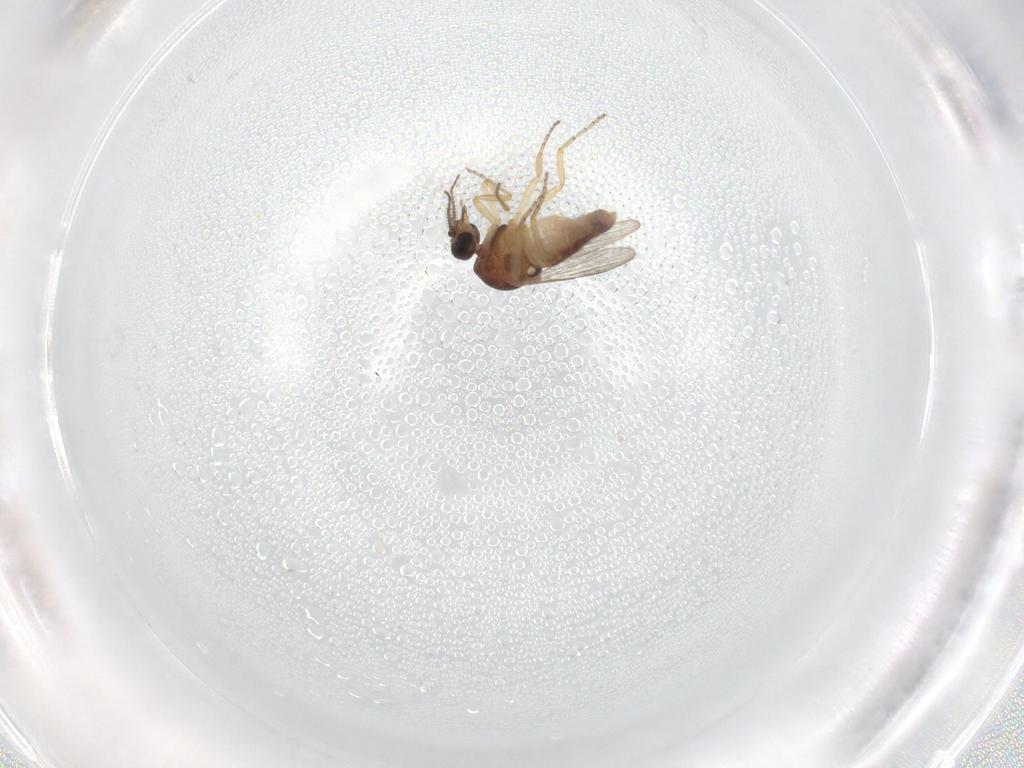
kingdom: Animalia
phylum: Arthropoda
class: Insecta
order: Diptera
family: Ceratopogonidae
